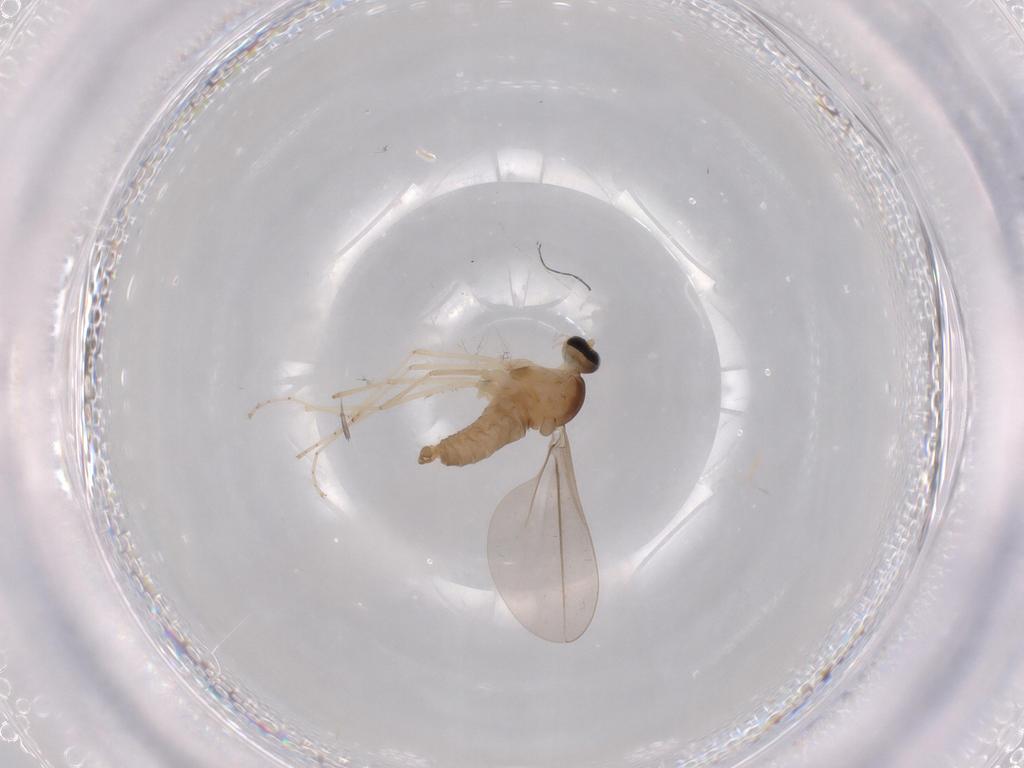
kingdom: Animalia
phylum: Arthropoda
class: Insecta
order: Diptera
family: Cecidomyiidae
